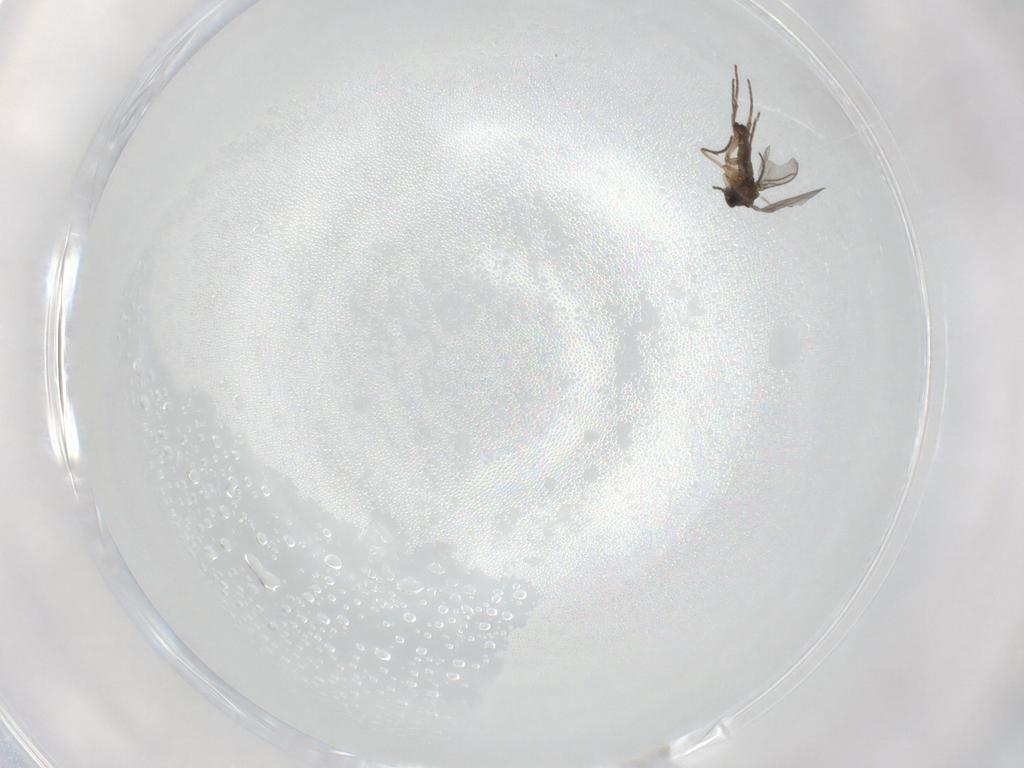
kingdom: Animalia
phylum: Arthropoda
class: Insecta
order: Diptera
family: Sciaridae
